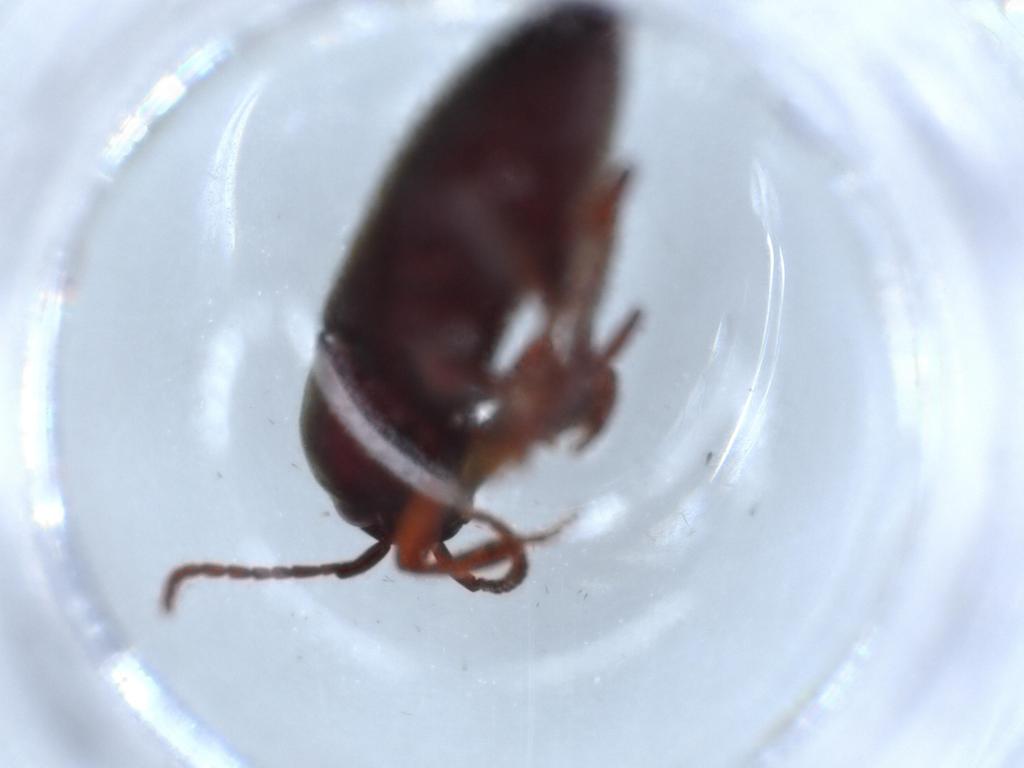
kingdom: Animalia
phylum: Arthropoda
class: Insecta
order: Coleoptera
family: Eucnemidae
